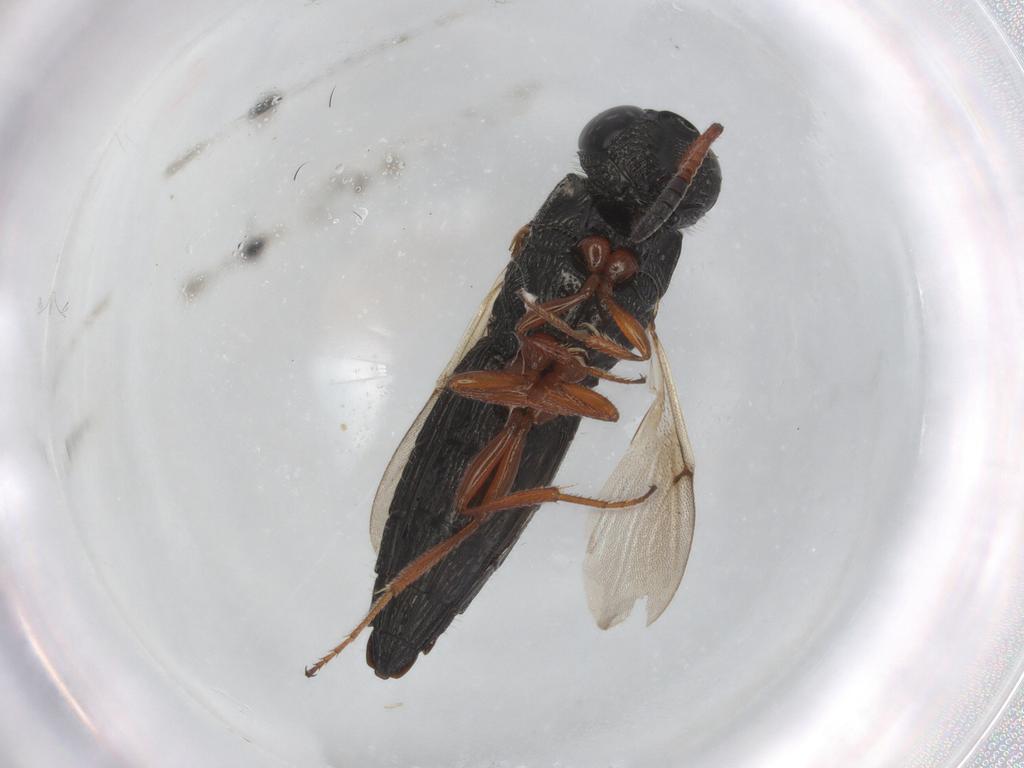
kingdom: Animalia
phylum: Arthropoda
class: Insecta
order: Hymenoptera
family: Scelionidae
